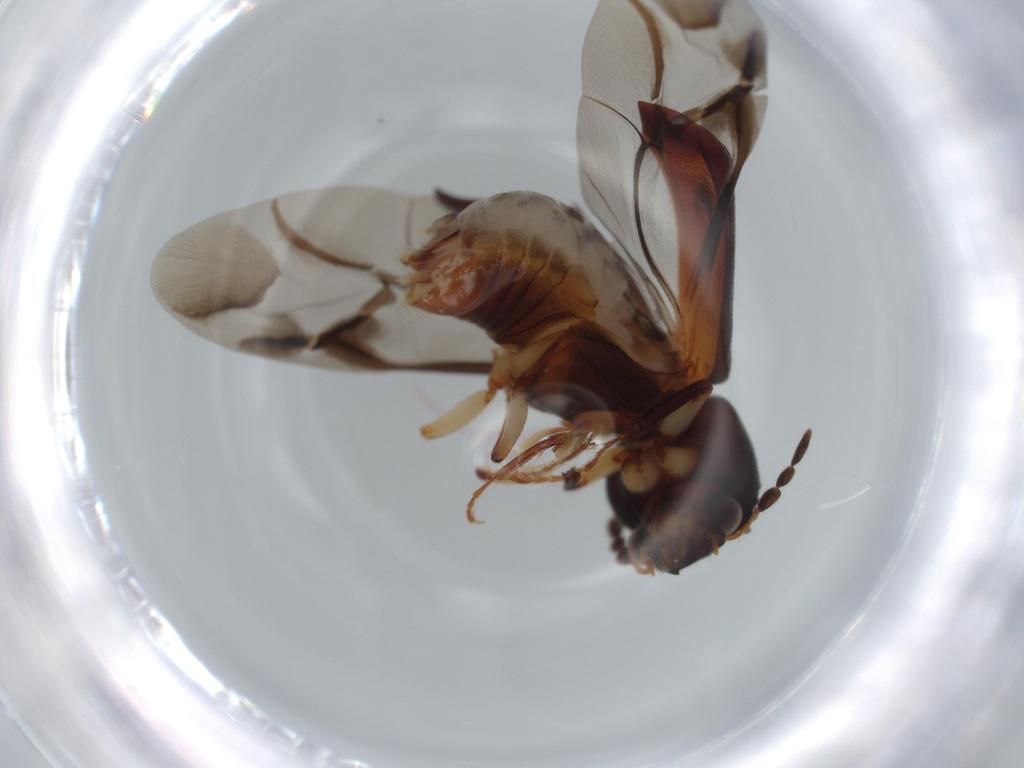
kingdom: Animalia
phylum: Arthropoda
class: Insecta
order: Coleoptera
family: Bostrichidae
